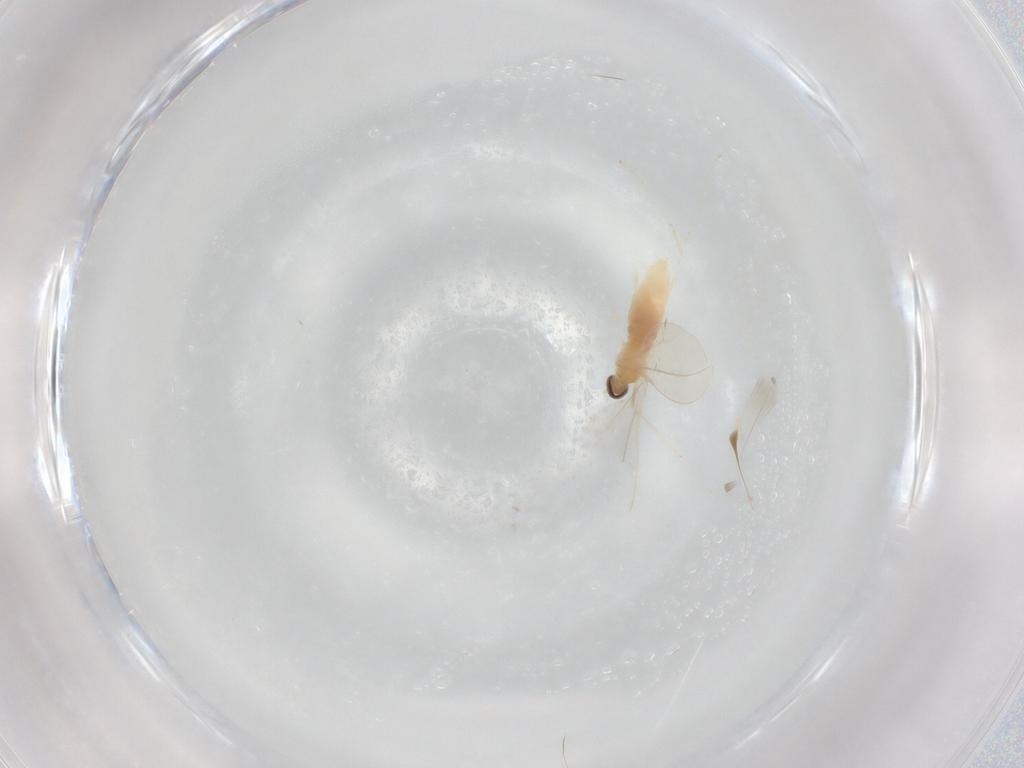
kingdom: Animalia
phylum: Arthropoda
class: Insecta
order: Diptera
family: Cecidomyiidae
